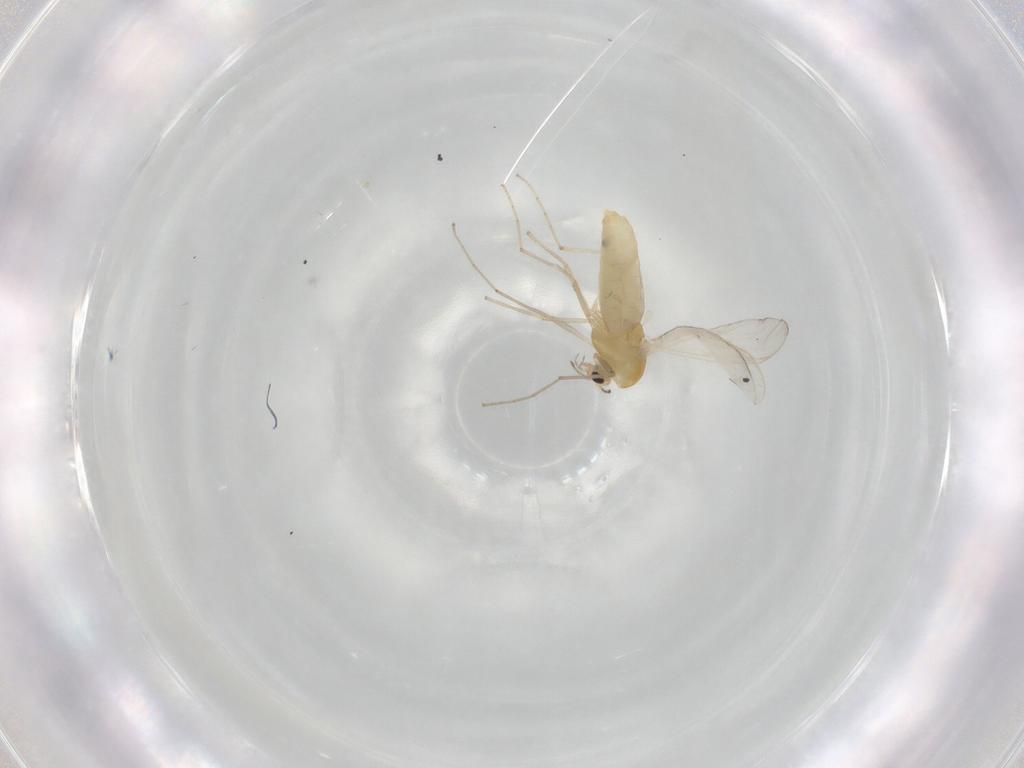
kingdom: Animalia
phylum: Arthropoda
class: Insecta
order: Diptera
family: Chironomidae
